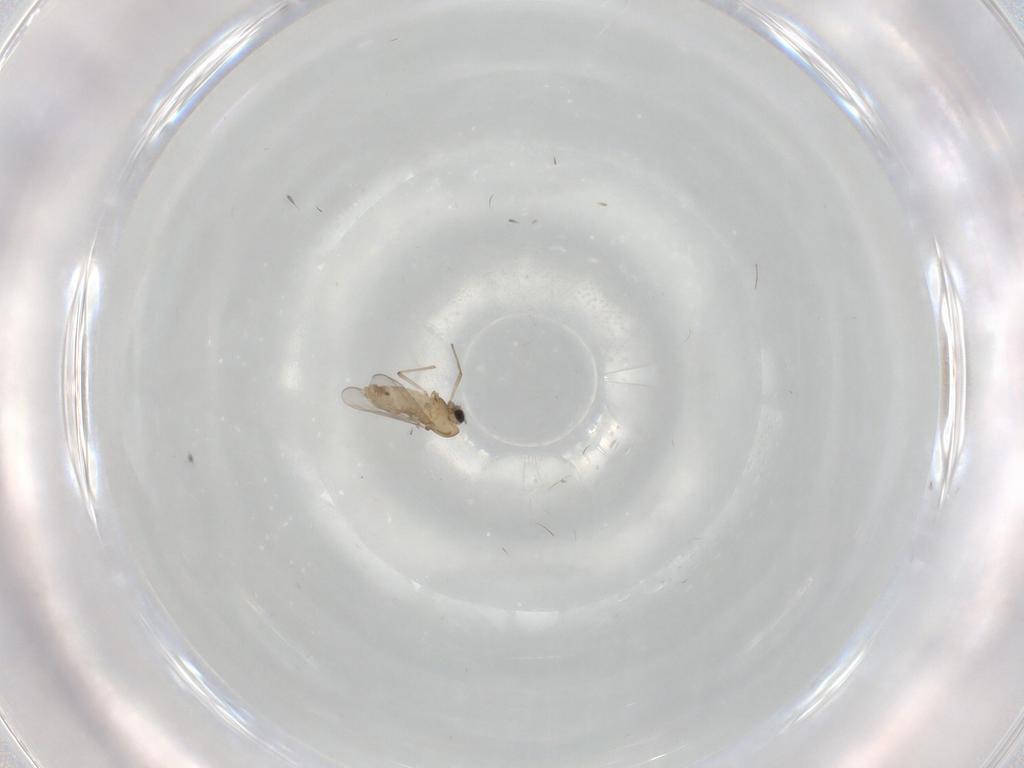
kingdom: Animalia
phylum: Arthropoda
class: Insecta
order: Diptera
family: Chironomidae
